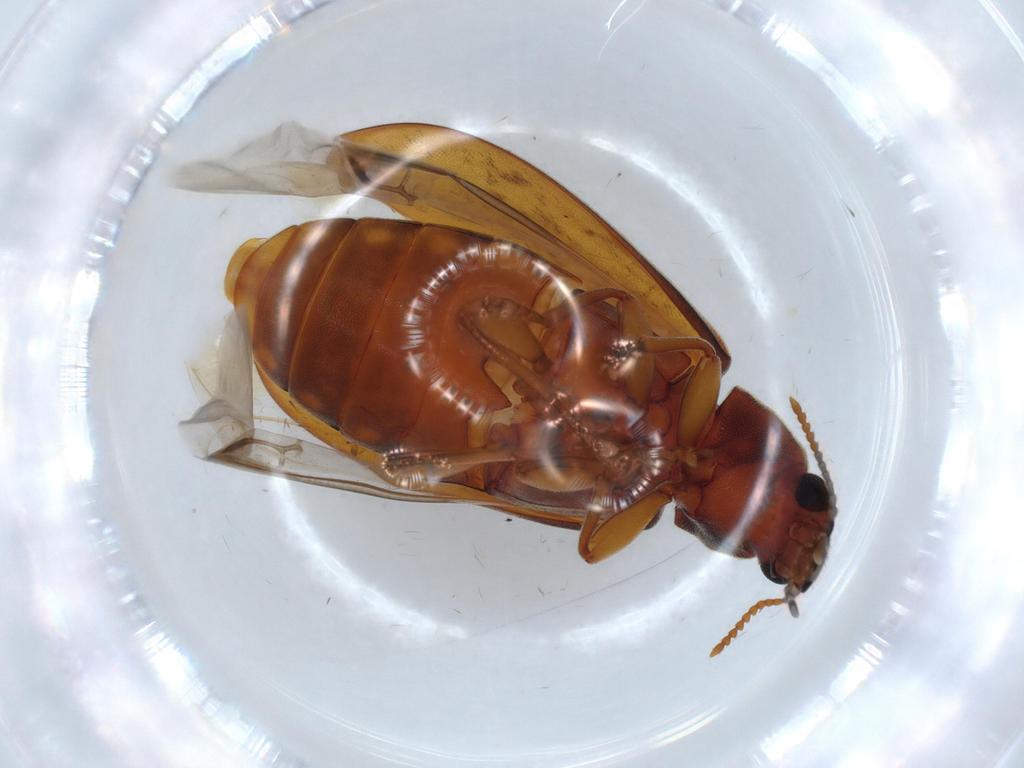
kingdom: Animalia
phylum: Arthropoda
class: Insecta
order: Coleoptera
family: Mycteridae
